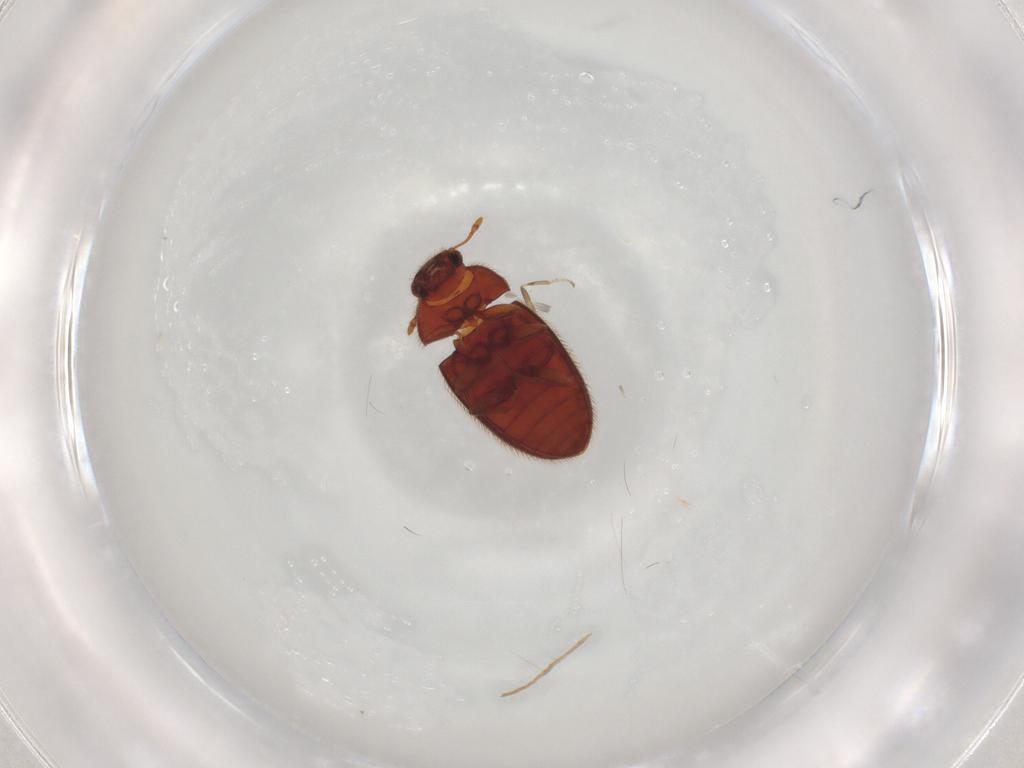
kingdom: Animalia
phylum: Arthropoda
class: Insecta
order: Coleoptera
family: Ptinidae
